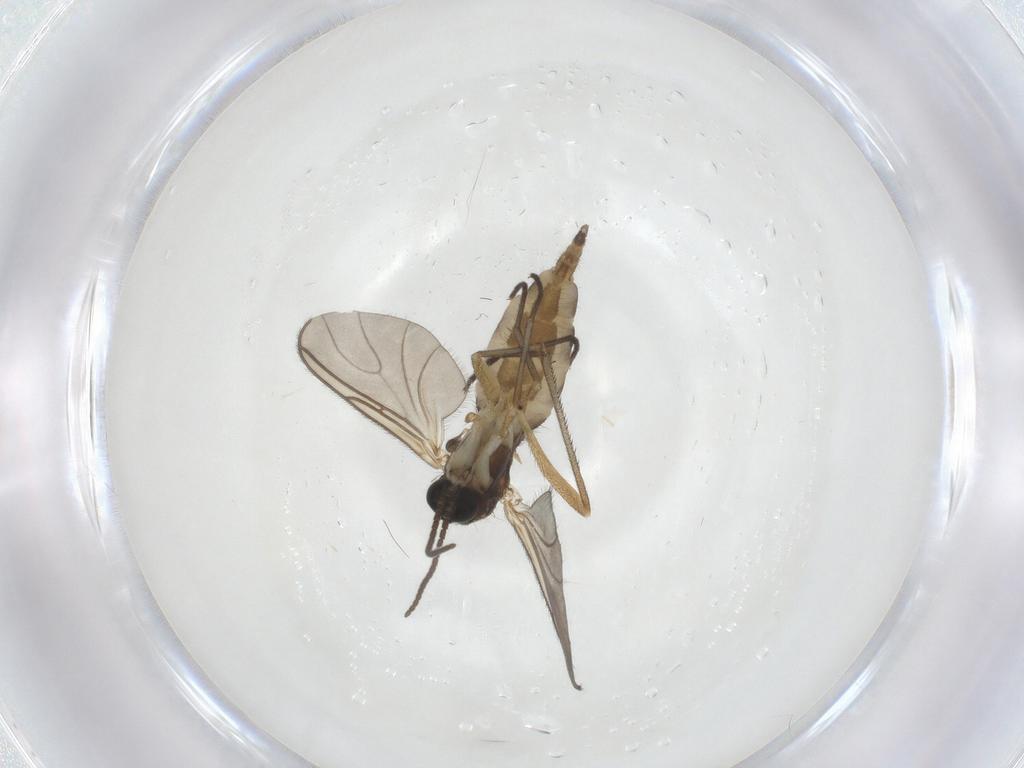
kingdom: Animalia
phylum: Arthropoda
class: Insecta
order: Diptera
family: Sciaridae
